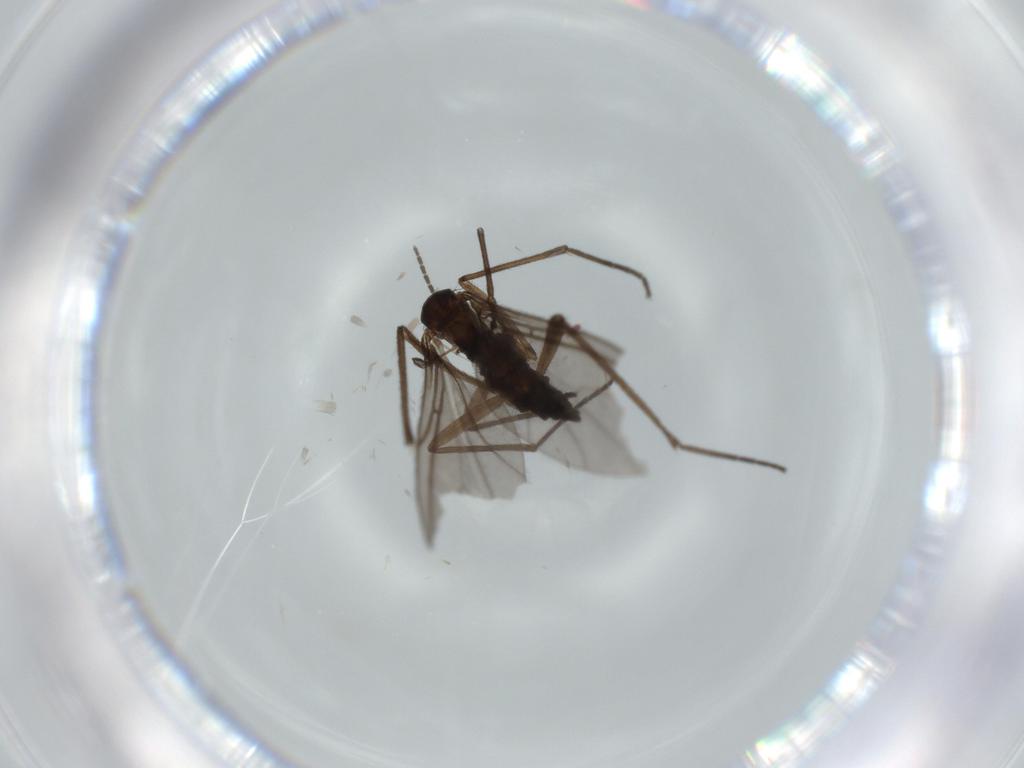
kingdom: Animalia
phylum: Arthropoda
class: Insecta
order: Diptera
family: Sciaridae
